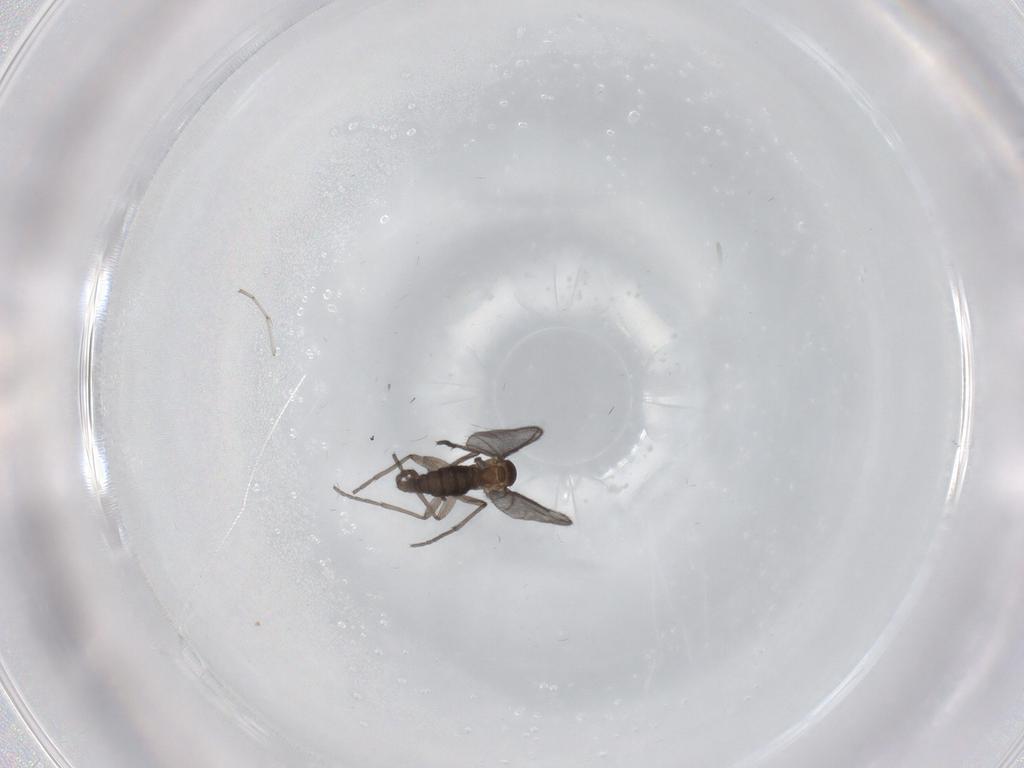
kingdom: Animalia
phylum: Arthropoda
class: Insecta
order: Diptera
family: Sciaridae
